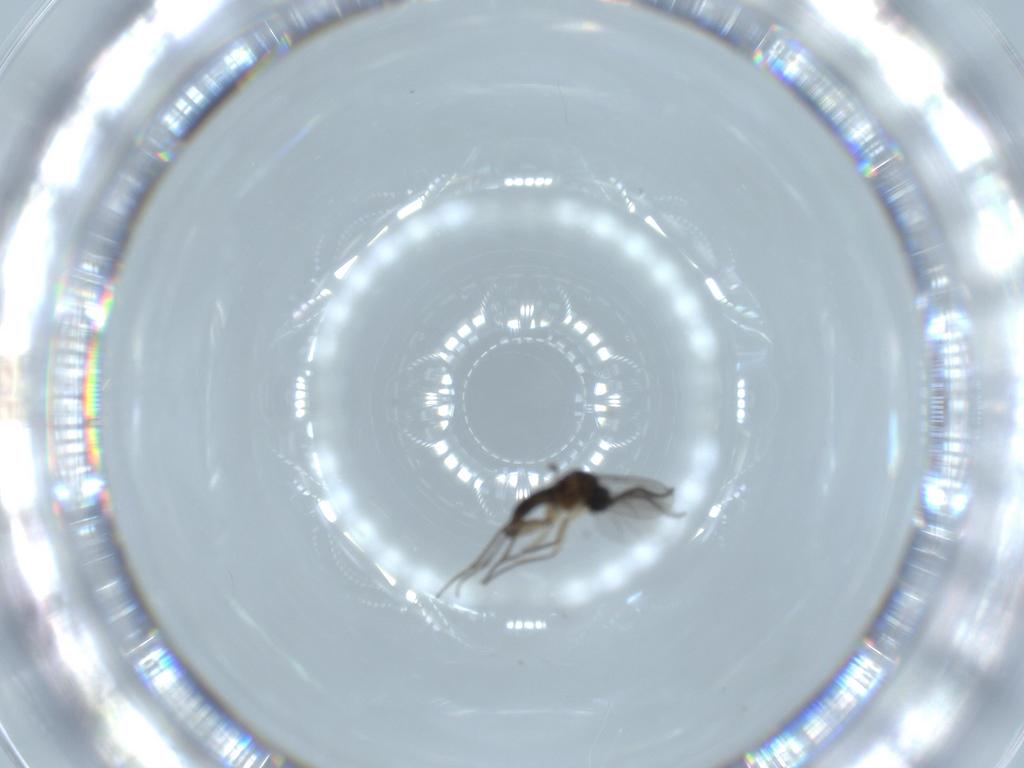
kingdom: Animalia
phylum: Arthropoda
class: Insecta
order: Diptera
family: Sciaridae
